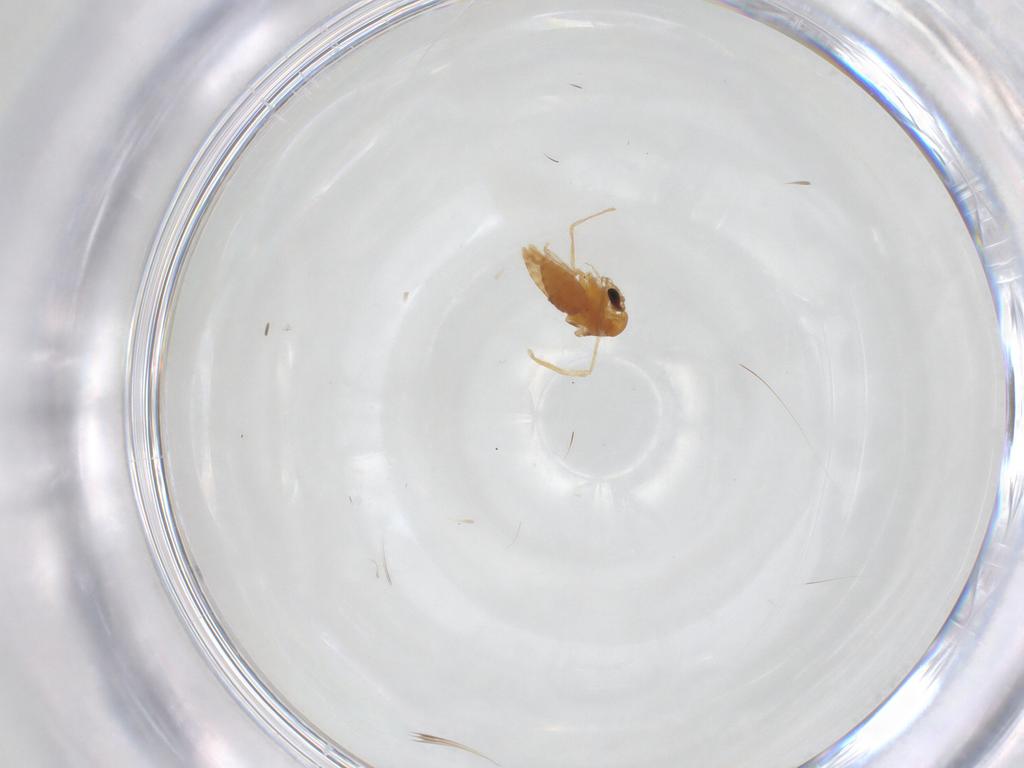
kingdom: Animalia
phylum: Arthropoda
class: Insecta
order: Diptera
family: Dolichopodidae
